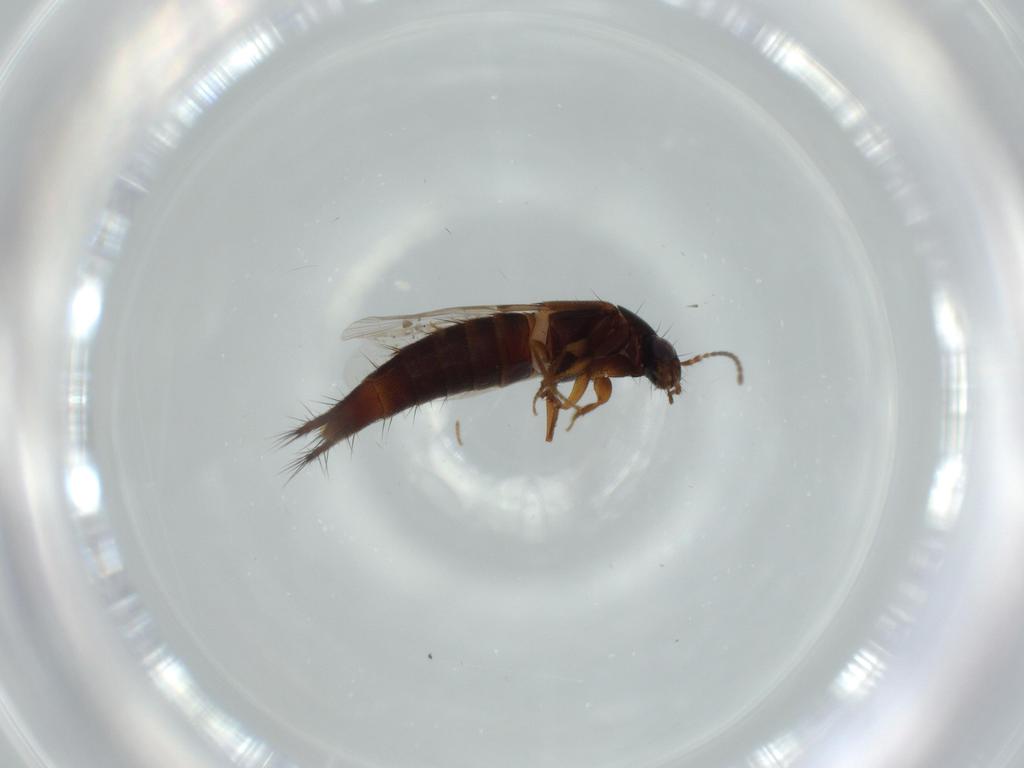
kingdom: Animalia
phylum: Arthropoda
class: Insecta
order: Coleoptera
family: Staphylinidae
